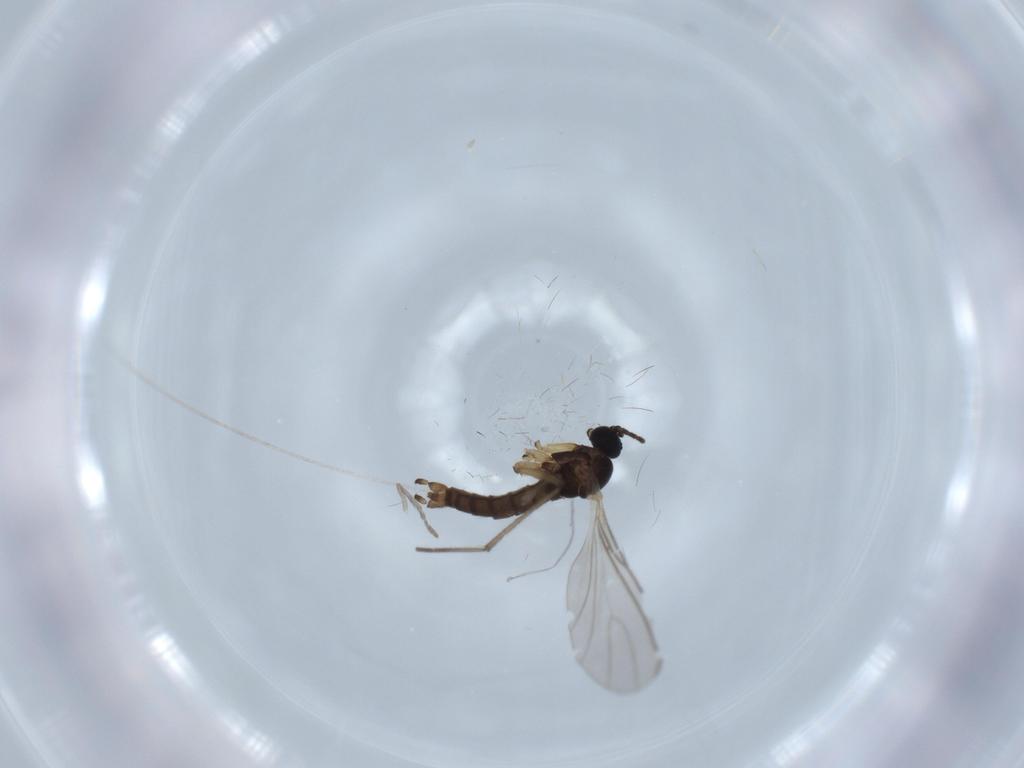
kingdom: Animalia
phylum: Arthropoda
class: Insecta
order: Diptera
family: Sciaridae
